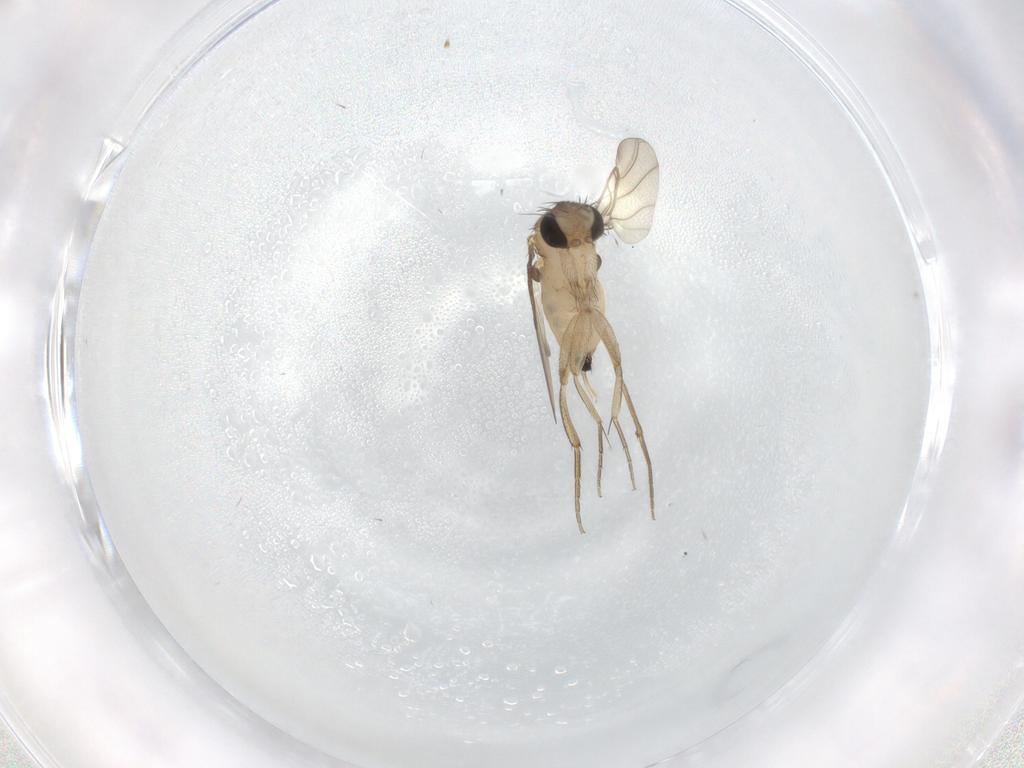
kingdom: Animalia
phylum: Arthropoda
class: Insecta
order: Diptera
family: Phoridae
